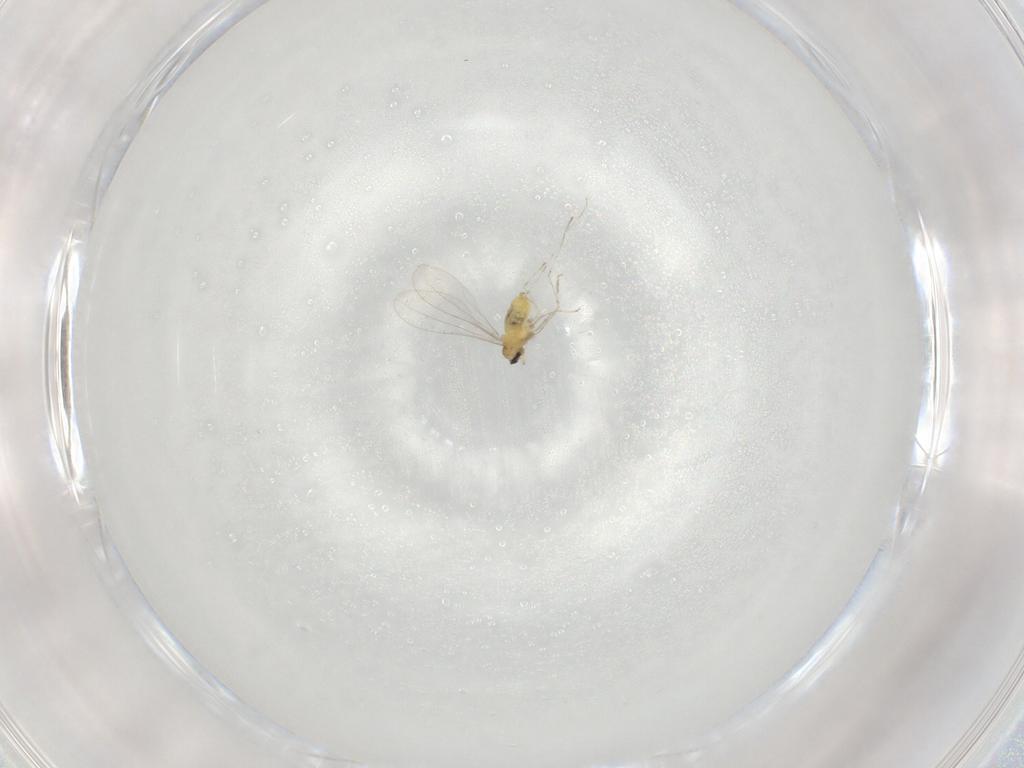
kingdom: Animalia
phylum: Arthropoda
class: Insecta
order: Diptera
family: Cecidomyiidae
